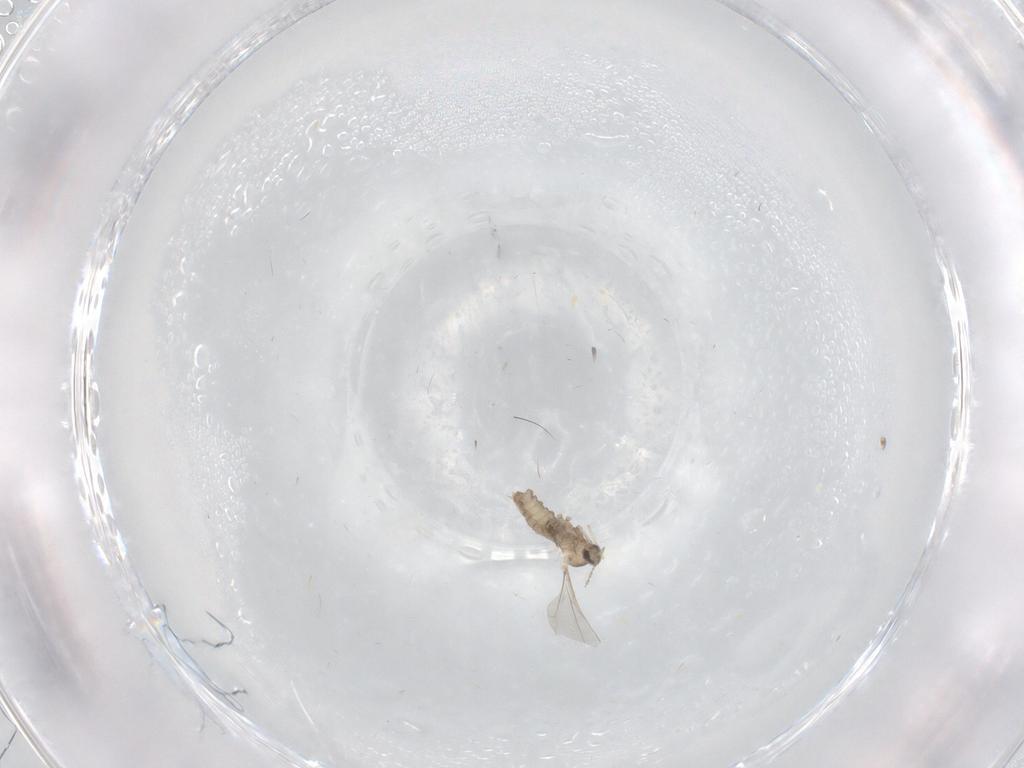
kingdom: Animalia
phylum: Arthropoda
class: Insecta
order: Diptera
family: Cecidomyiidae
